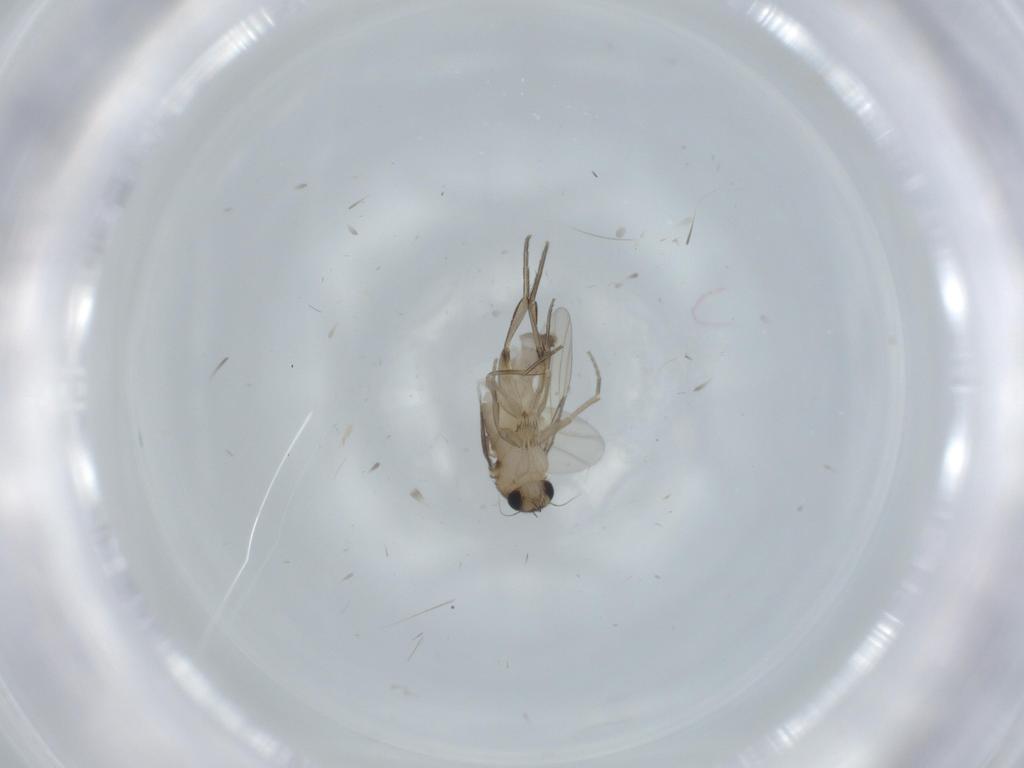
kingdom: Animalia
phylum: Arthropoda
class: Insecta
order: Diptera
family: Phoridae
